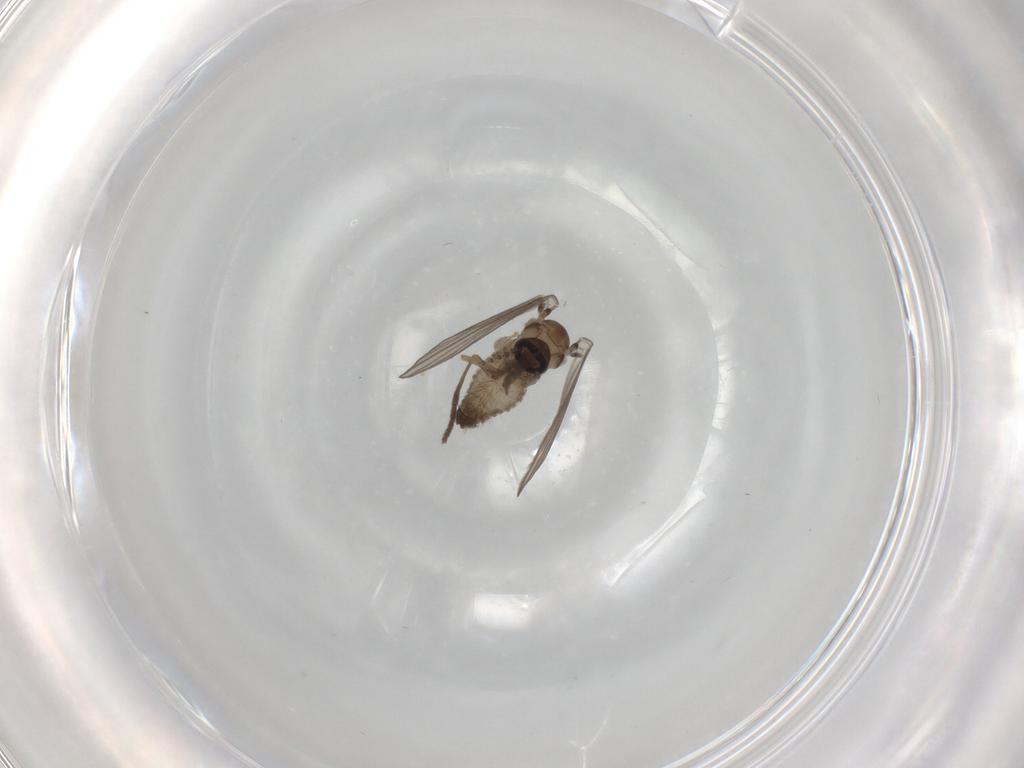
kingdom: Animalia
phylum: Arthropoda
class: Insecta
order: Diptera
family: Psychodidae
